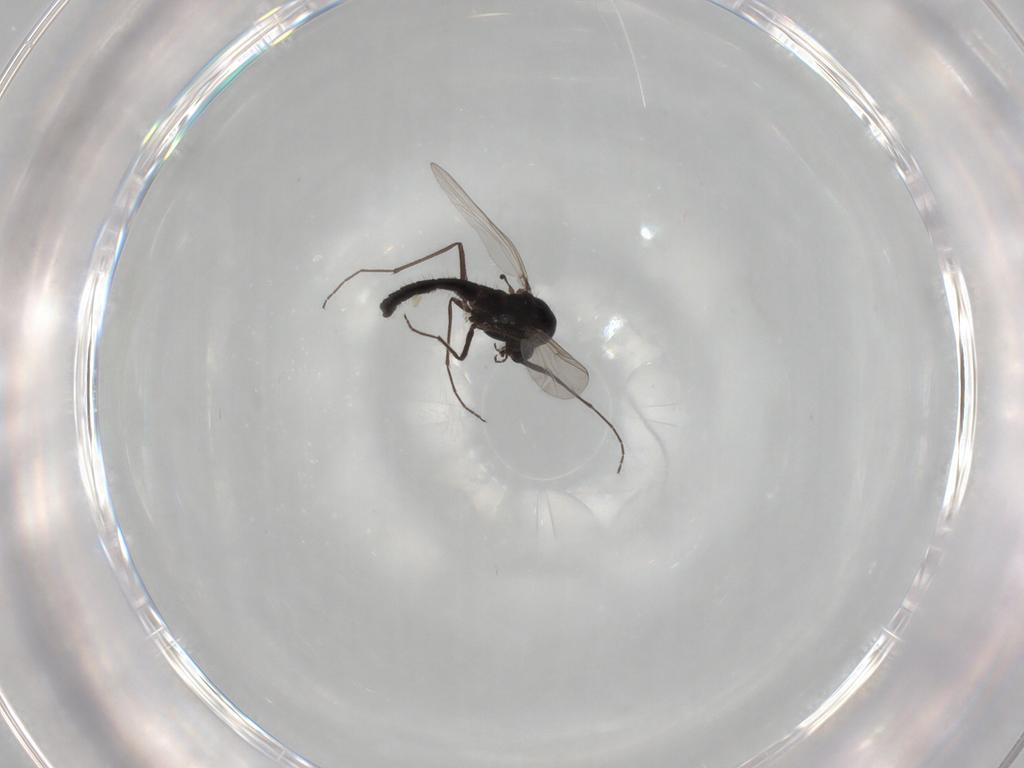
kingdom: Animalia
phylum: Arthropoda
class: Insecta
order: Diptera
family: Chironomidae
